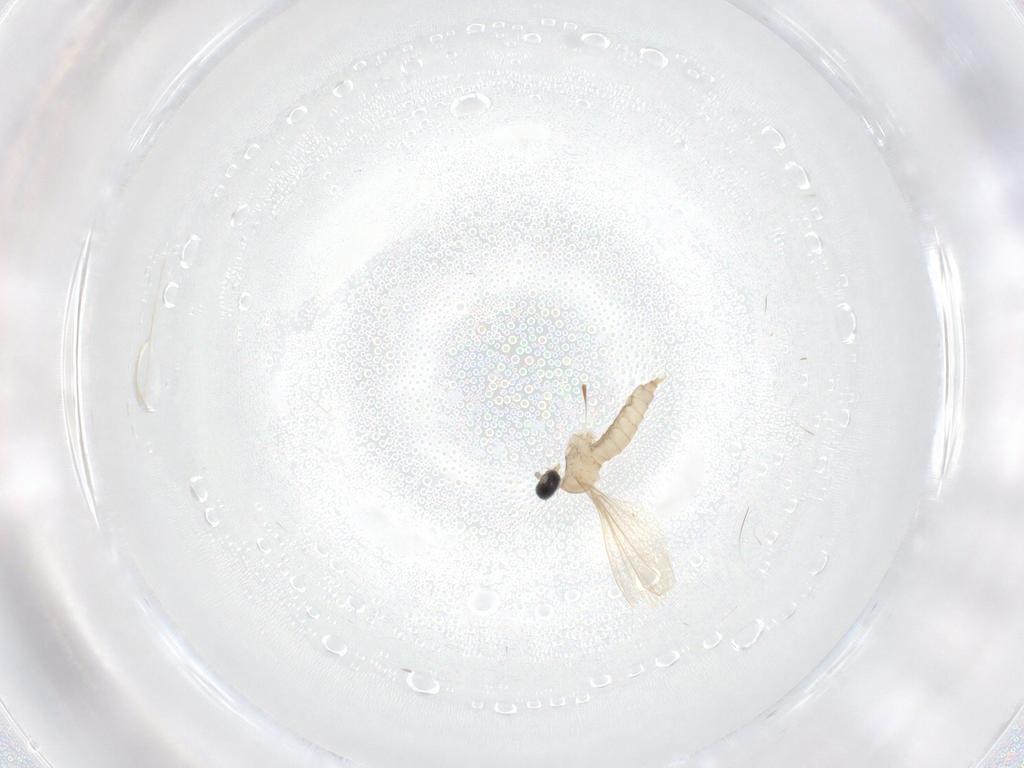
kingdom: Animalia
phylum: Arthropoda
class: Insecta
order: Diptera
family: Cecidomyiidae
